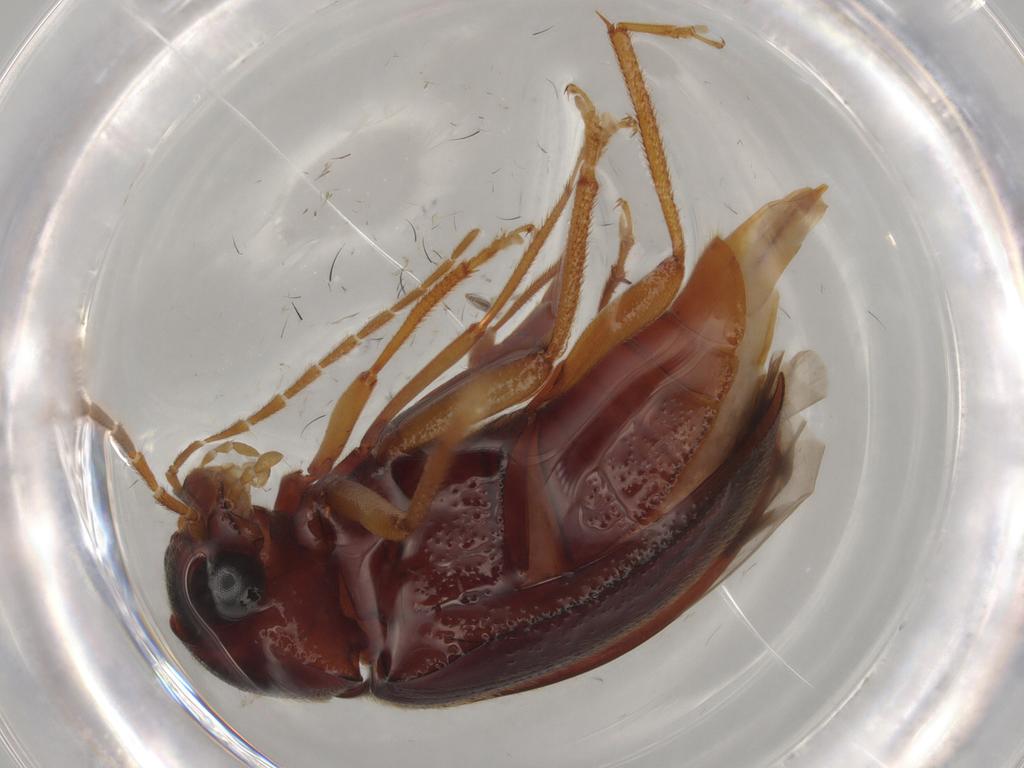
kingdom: Animalia
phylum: Arthropoda
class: Insecta
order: Coleoptera
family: Ptilodactylidae
